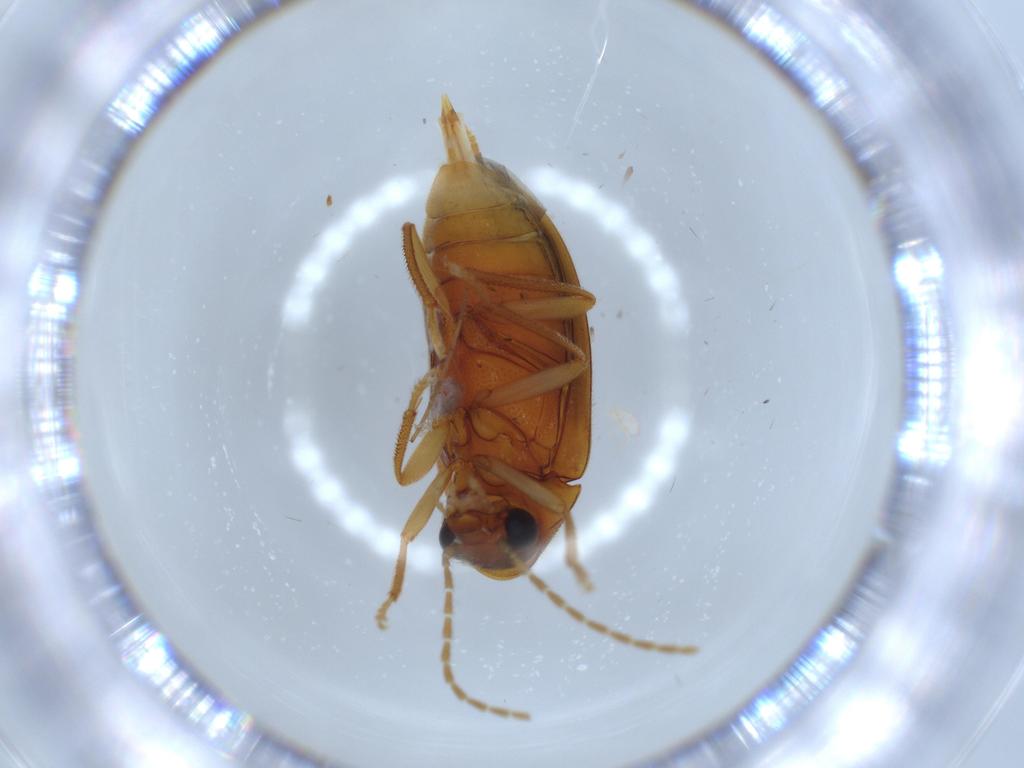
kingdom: Animalia
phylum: Arthropoda
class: Insecta
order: Coleoptera
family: Ptilodactylidae
